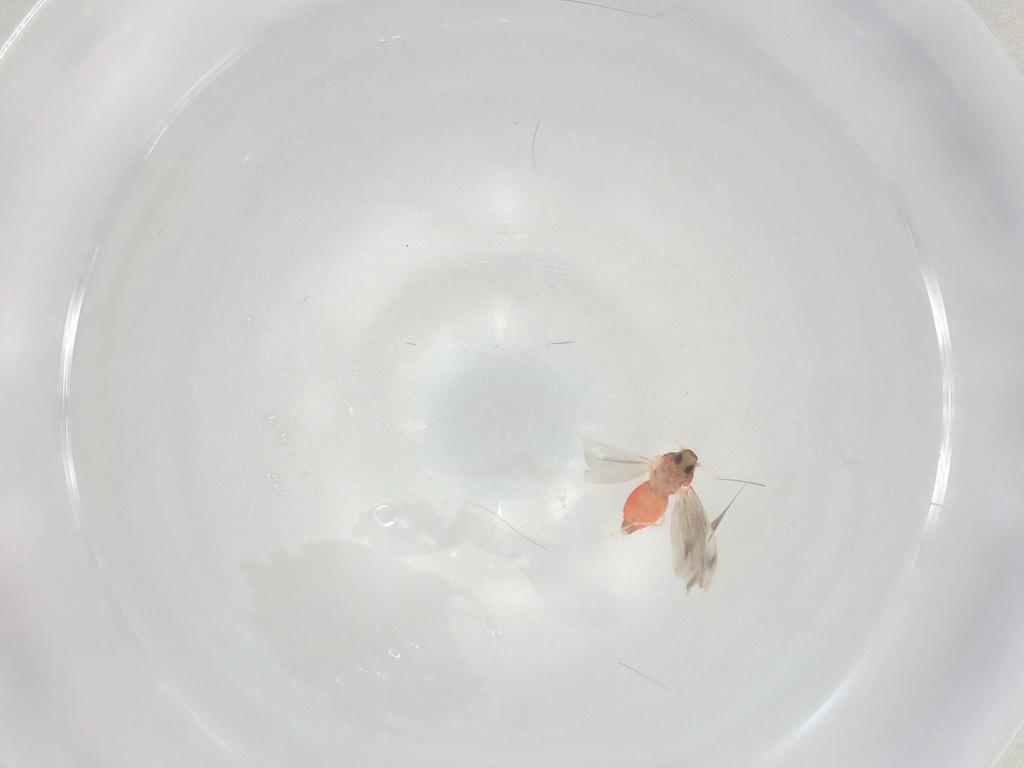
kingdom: Animalia
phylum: Arthropoda
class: Insecta
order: Hemiptera
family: Aleyrodidae
